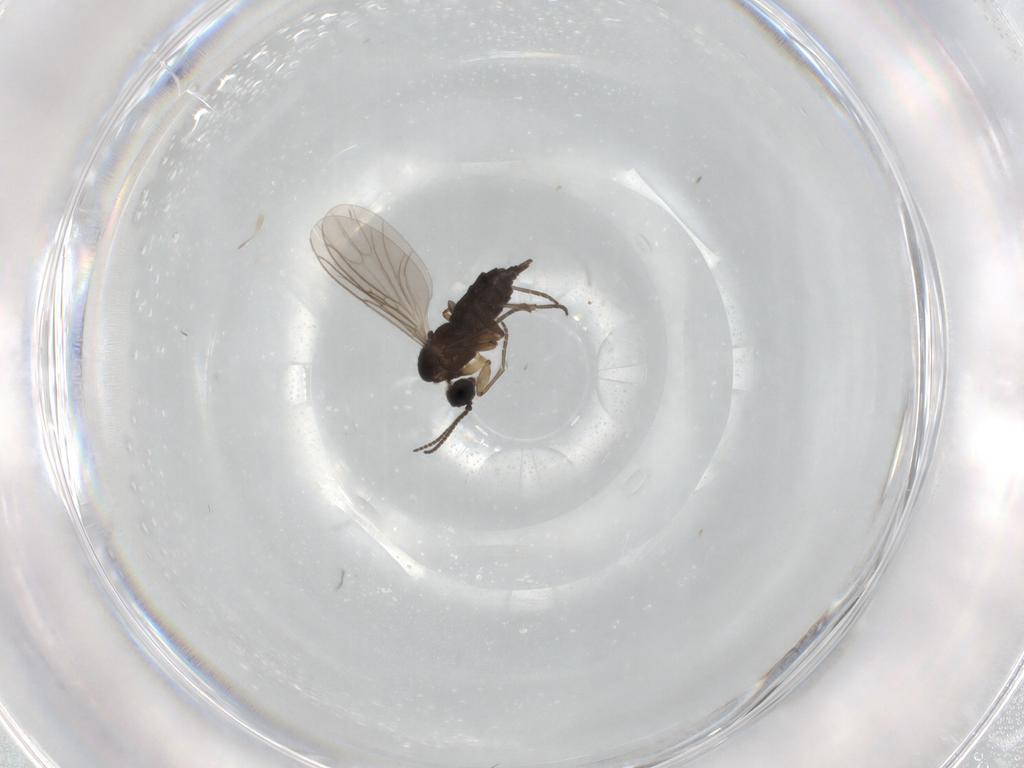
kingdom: Animalia
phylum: Arthropoda
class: Insecta
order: Diptera
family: Sciaridae
